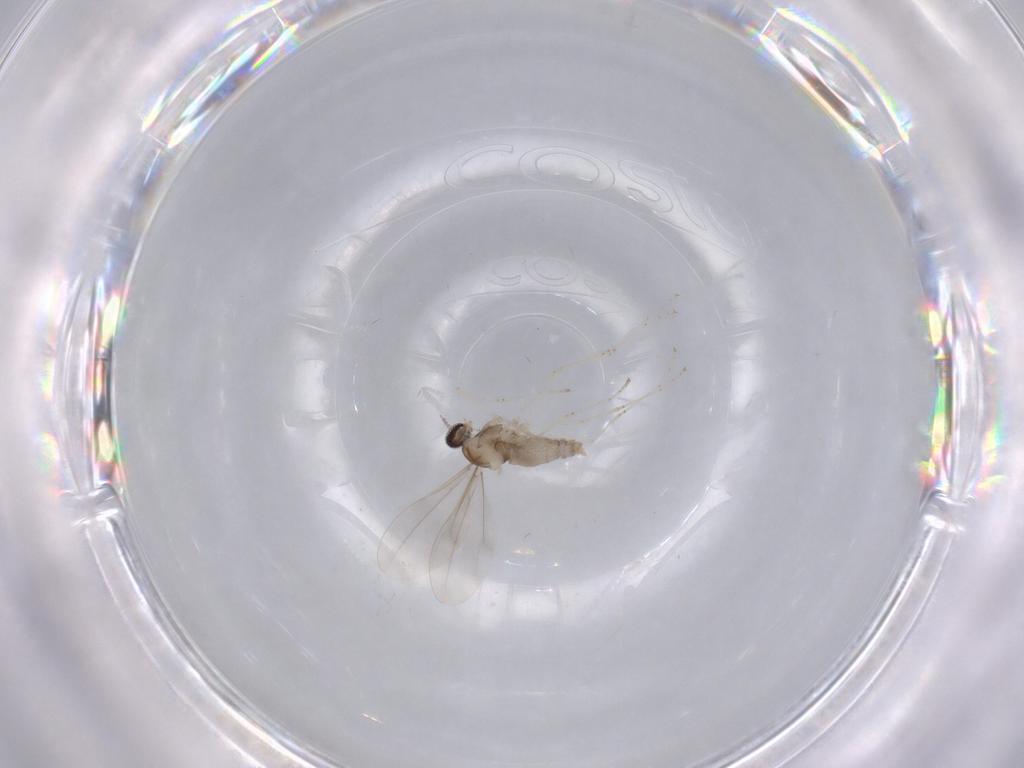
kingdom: Animalia
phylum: Arthropoda
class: Insecta
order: Diptera
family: Cecidomyiidae
